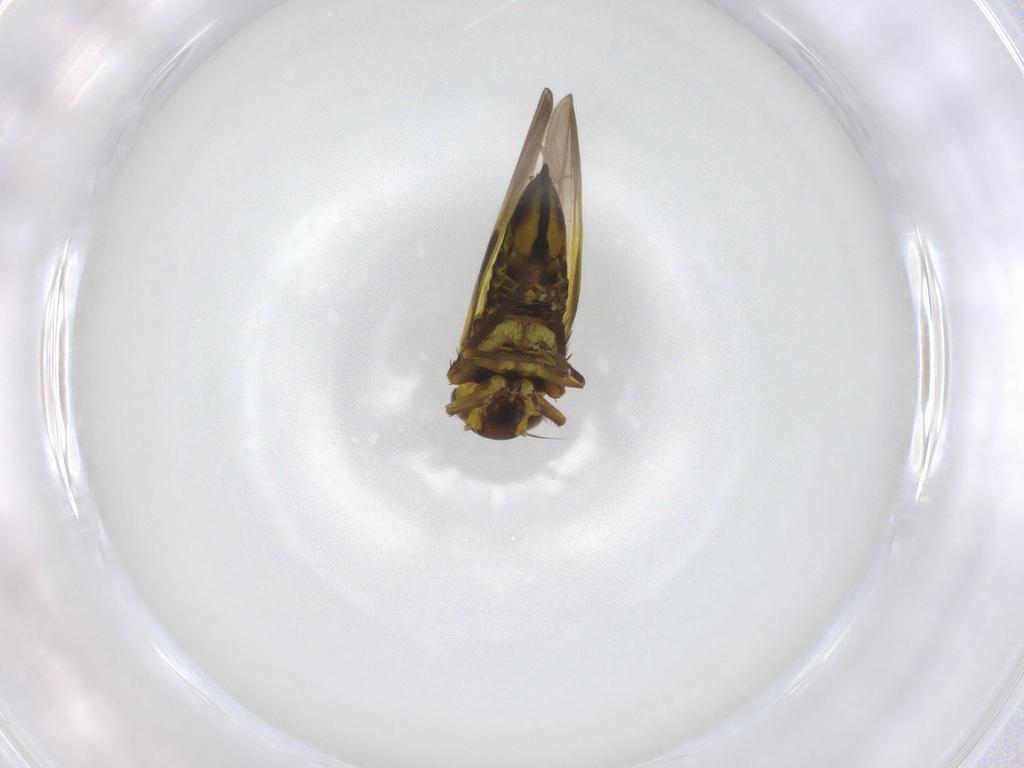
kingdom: Animalia
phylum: Arthropoda
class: Insecta
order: Hemiptera
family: Cicadellidae
